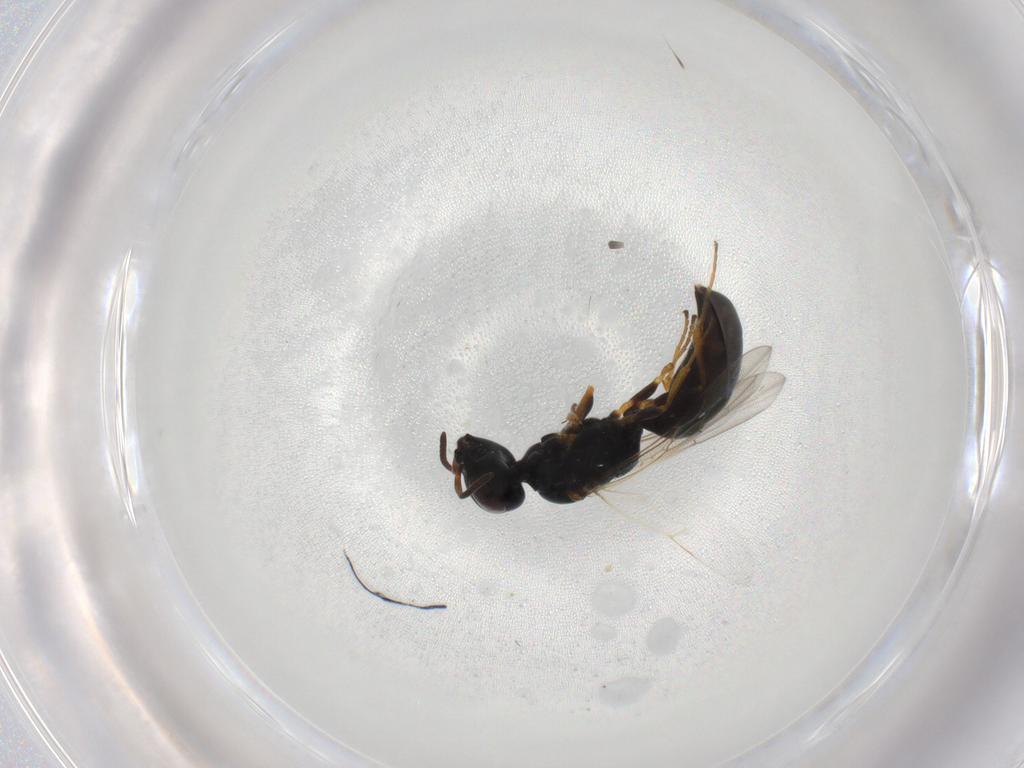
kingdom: Animalia
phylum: Arthropoda
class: Insecta
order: Hymenoptera
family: Pemphredonidae
